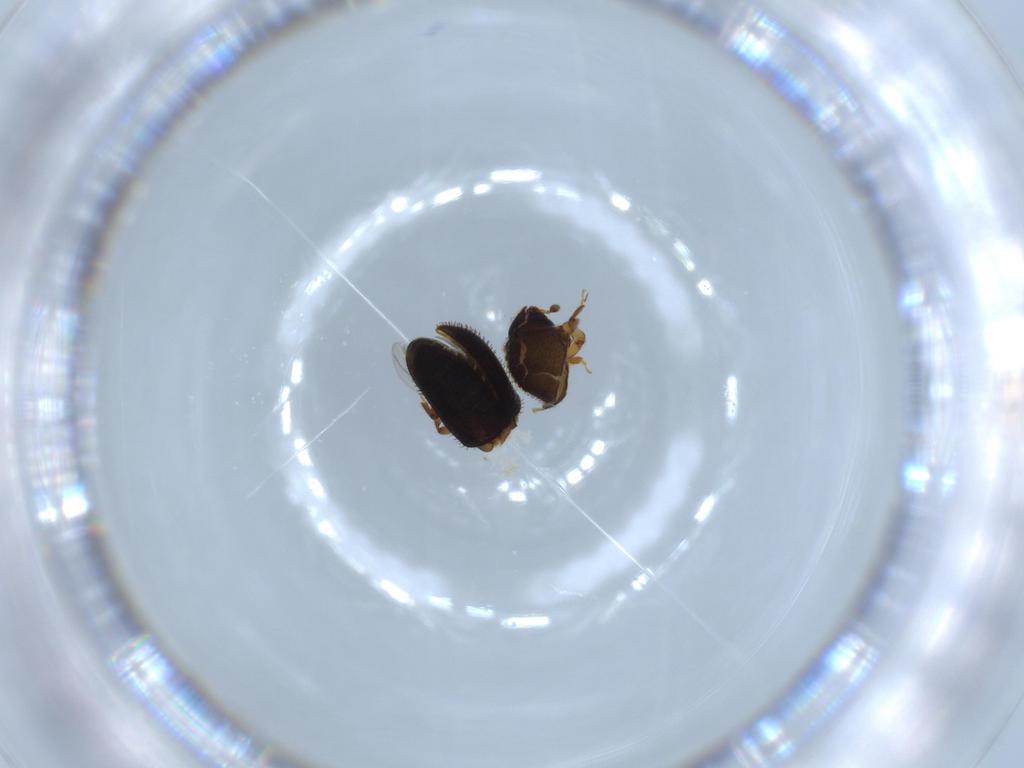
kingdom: Animalia
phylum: Arthropoda
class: Insecta
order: Coleoptera
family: Curculionidae
